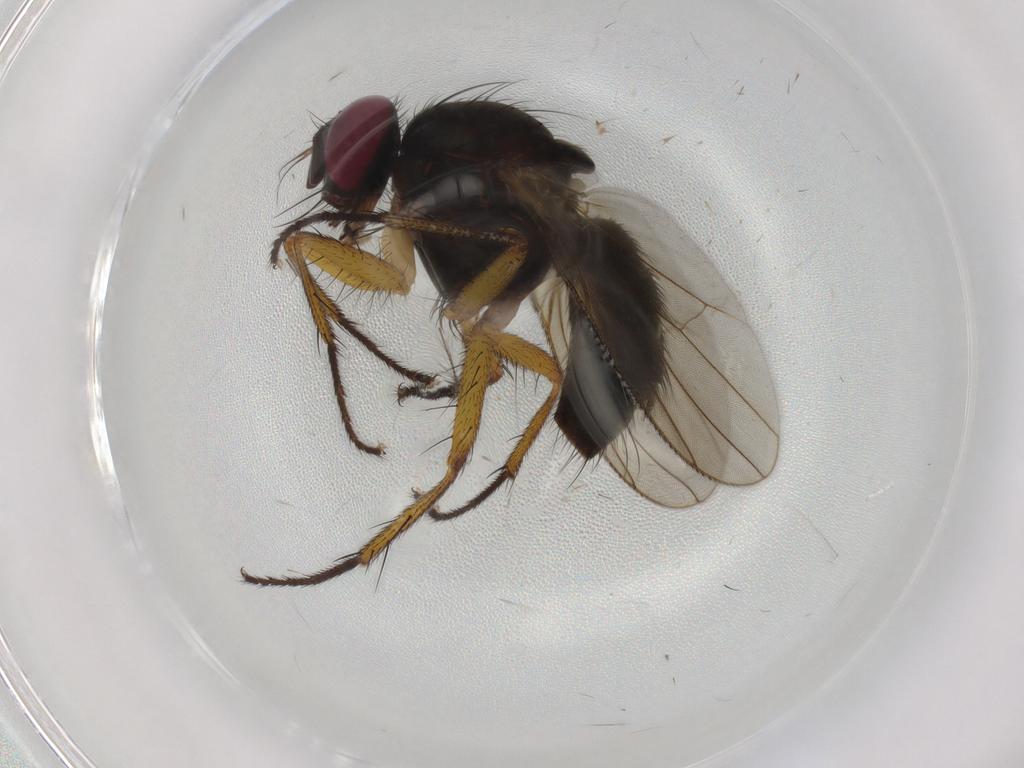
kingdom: Animalia
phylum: Arthropoda
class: Insecta
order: Diptera
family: Muscidae
